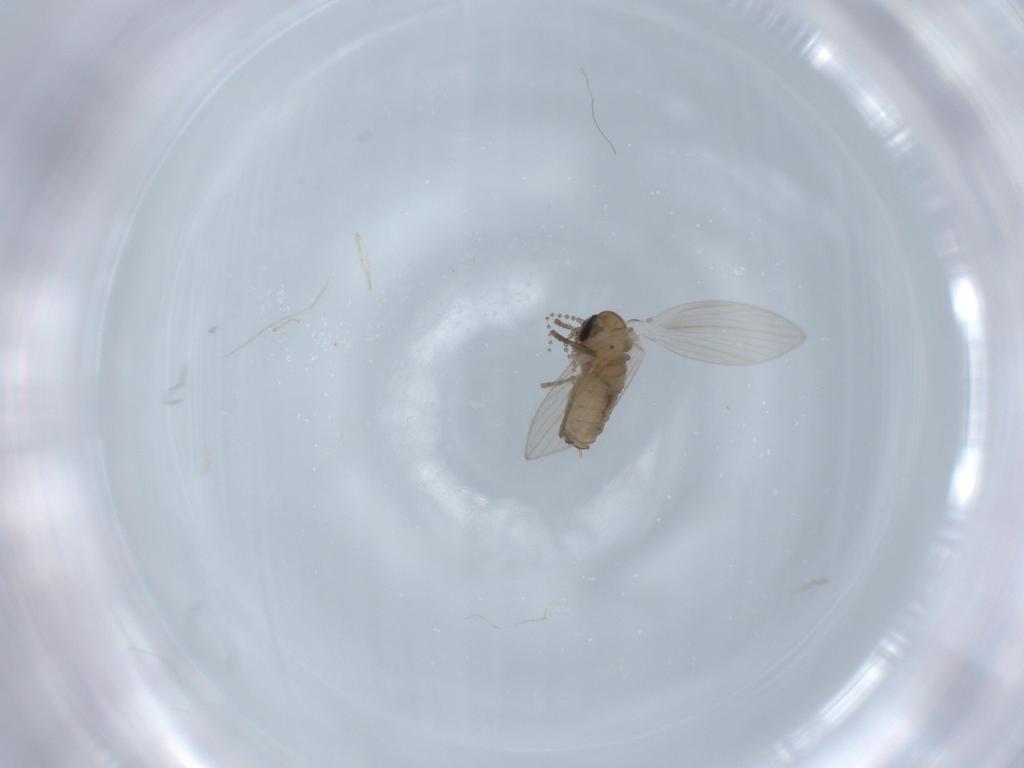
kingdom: Animalia
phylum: Arthropoda
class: Insecta
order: Diptera
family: Psychodidae
